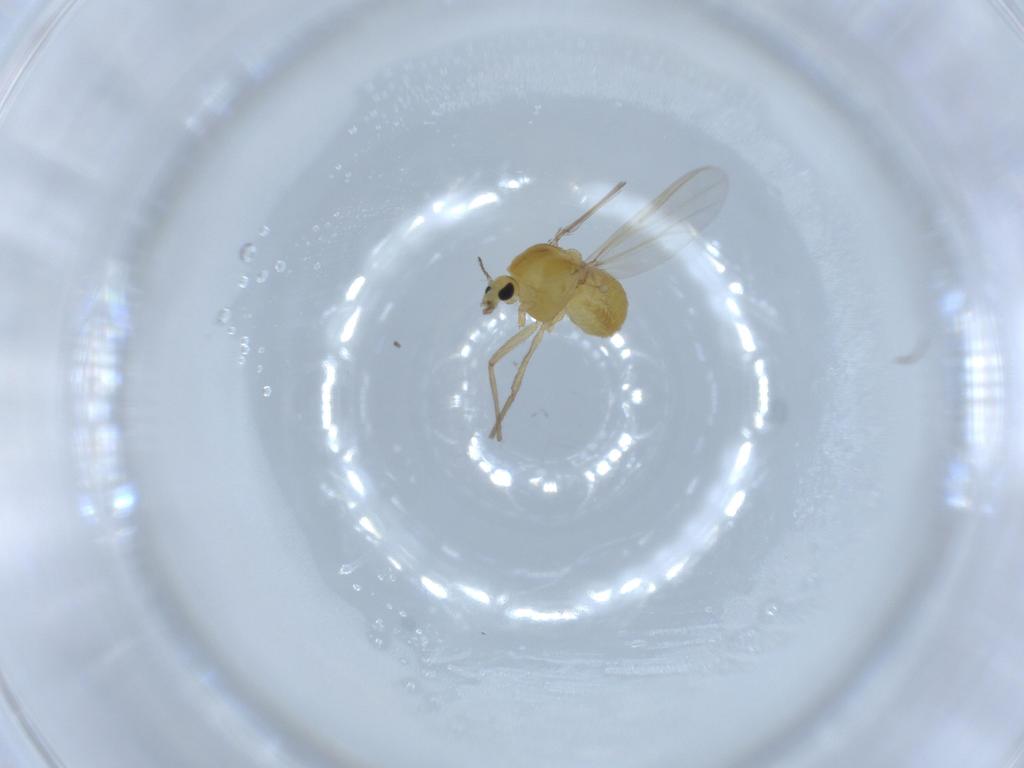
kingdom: Animalia
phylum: Arthropoda
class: Insecta
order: Diptera
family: Chironomidae
